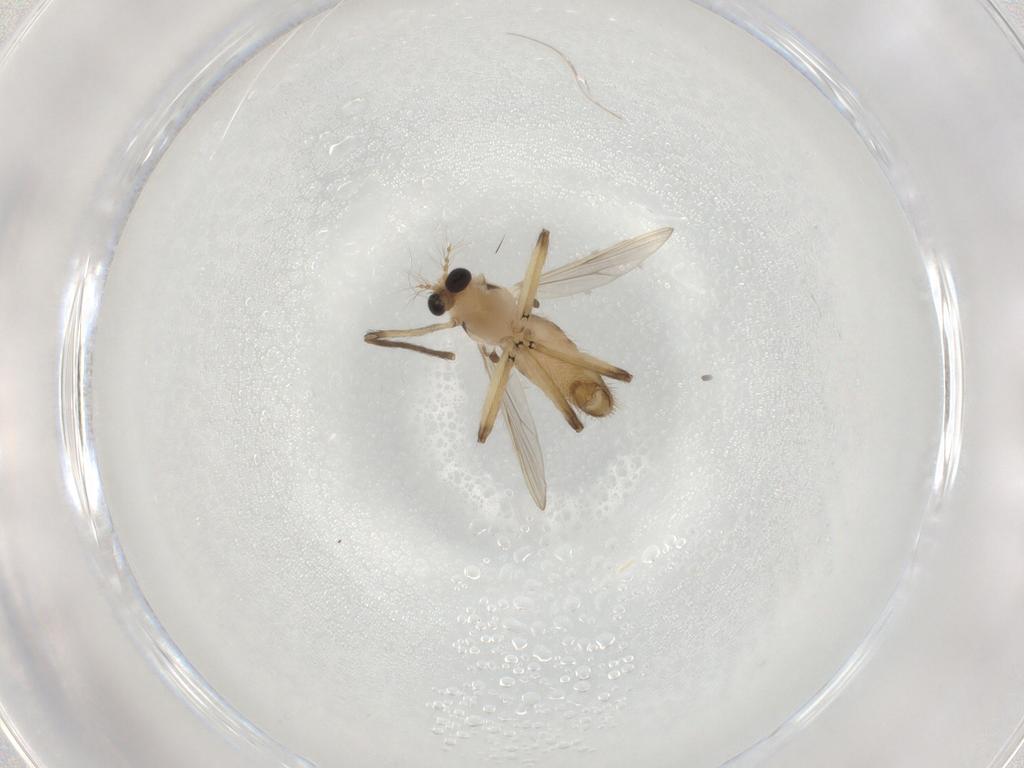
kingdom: Animalia
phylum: Arthropoda
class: Insecta
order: Diptera
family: Chironomidae
